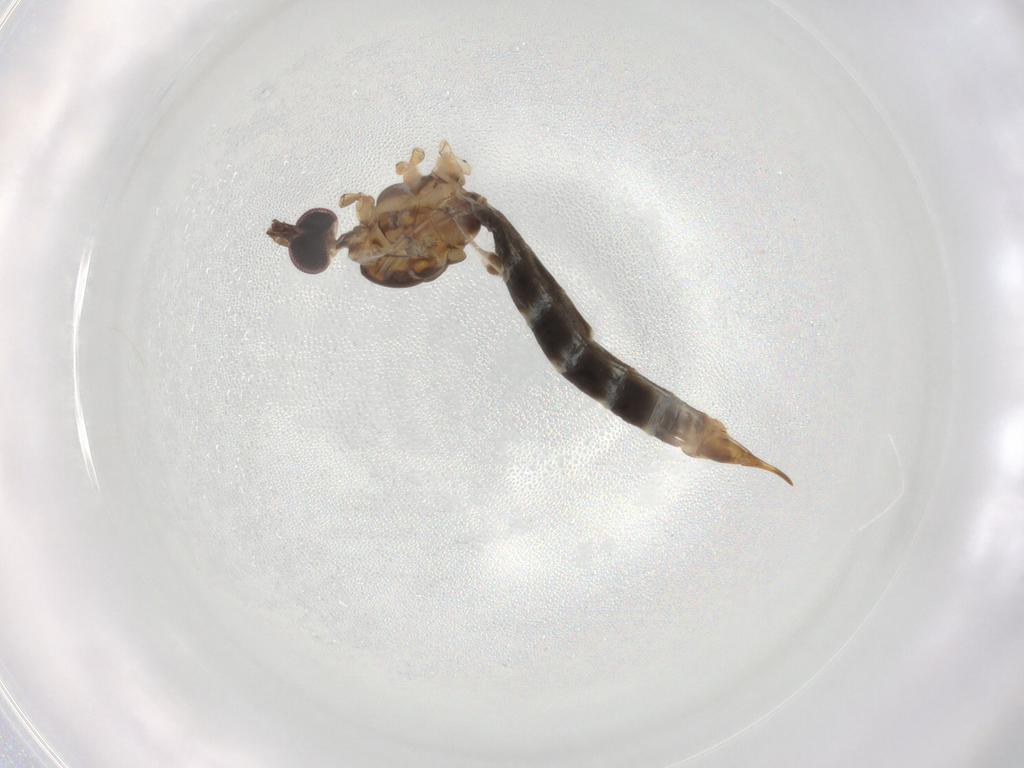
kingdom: Animalia
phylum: Arthropoda
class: Insecta
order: Diptera
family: Limoniidae
